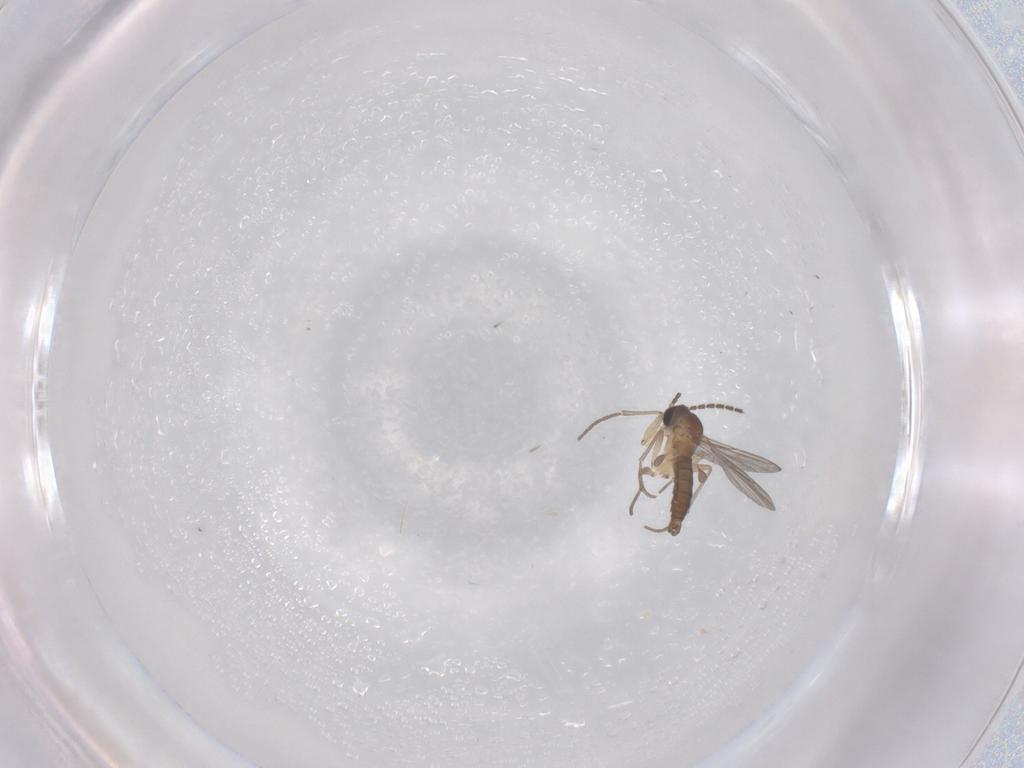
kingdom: Animalia
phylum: Arthropoda
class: Insecta
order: Diptera
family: Sciaridae
